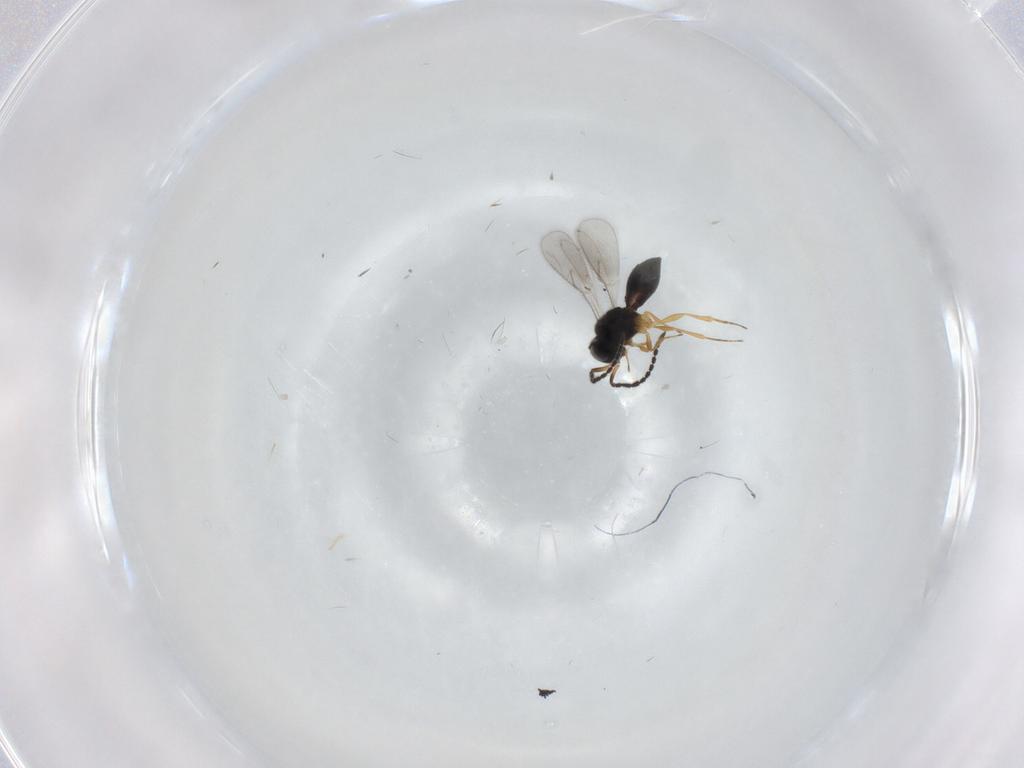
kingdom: Animalia
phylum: Arthropoda
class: Insecta
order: Hymenoptera
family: Scelionidae
